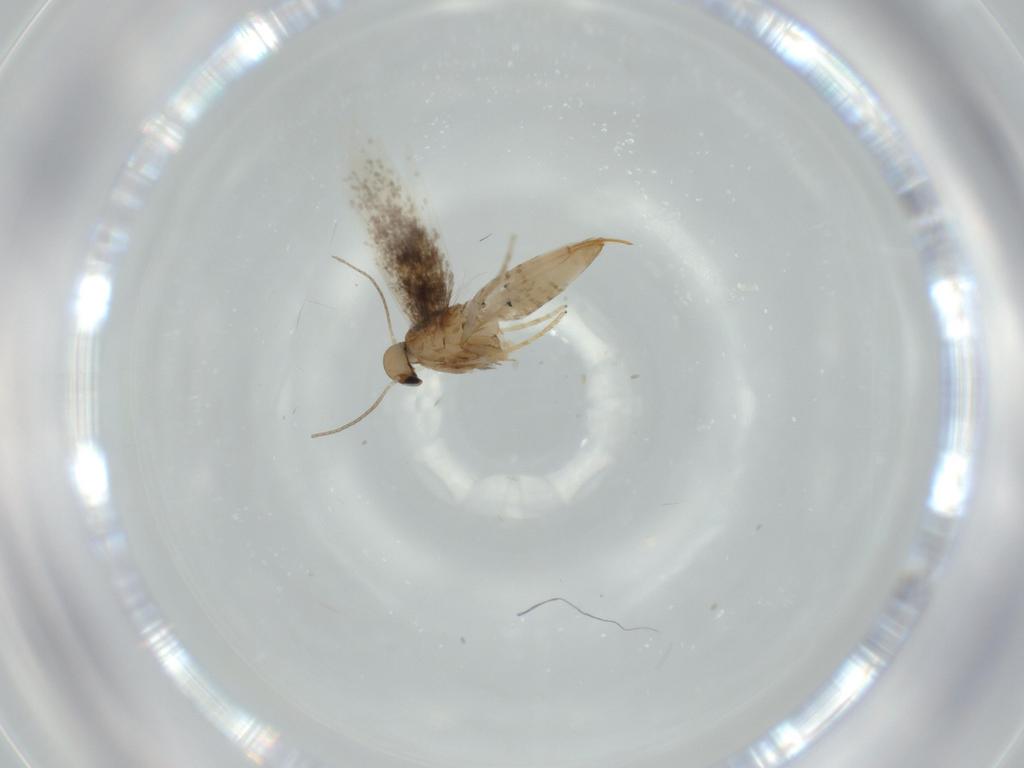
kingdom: Animalia
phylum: Arthropoda
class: Insecta
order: Lepidoptera
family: Heliozelidae
